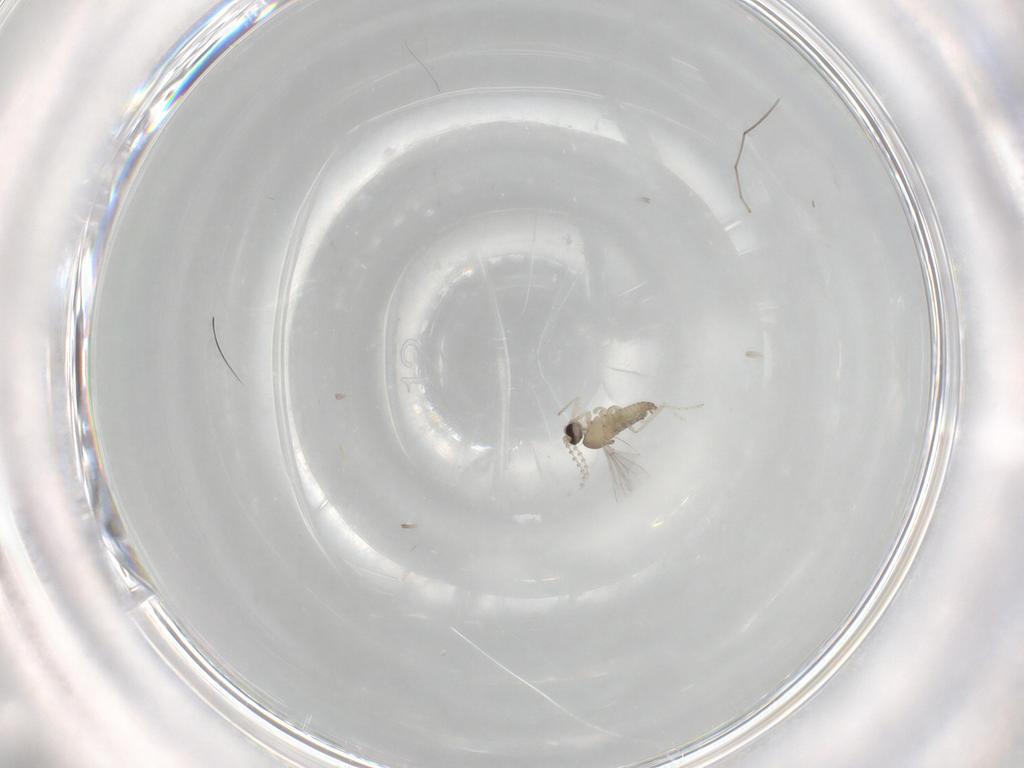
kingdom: Animalia
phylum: Arthropoda
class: Insecta
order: Diptera
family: Cecidomyiidae
